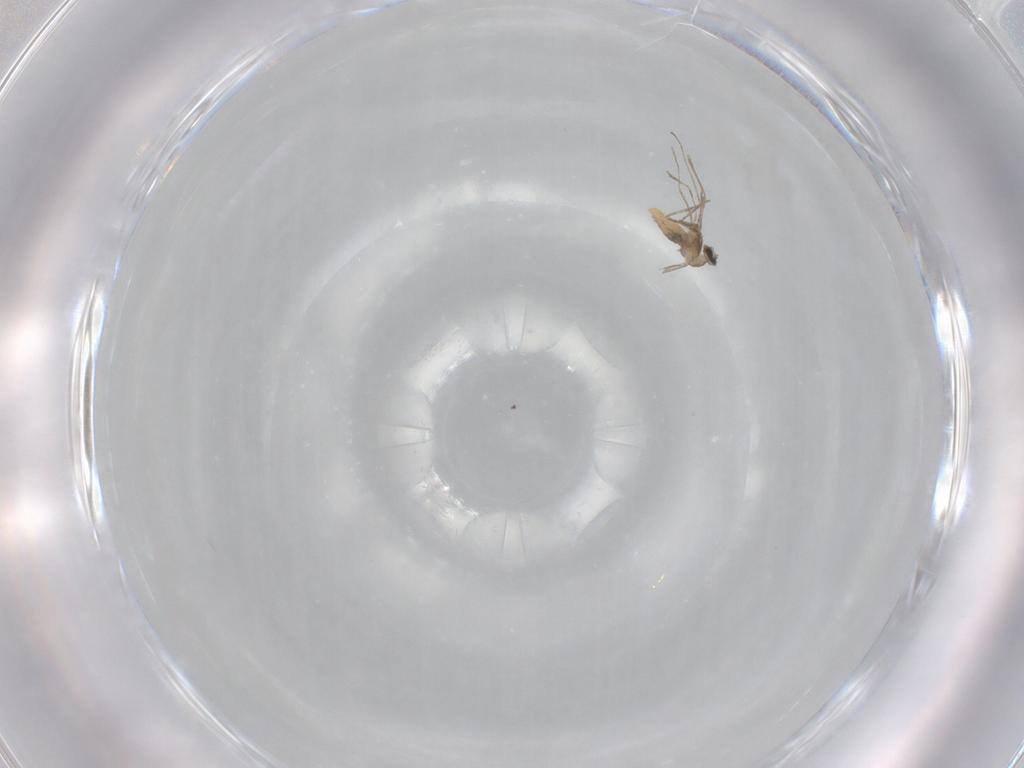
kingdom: Animalia
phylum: Arthropoda
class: Insecta
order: Diptera
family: Cecidomyiidae
